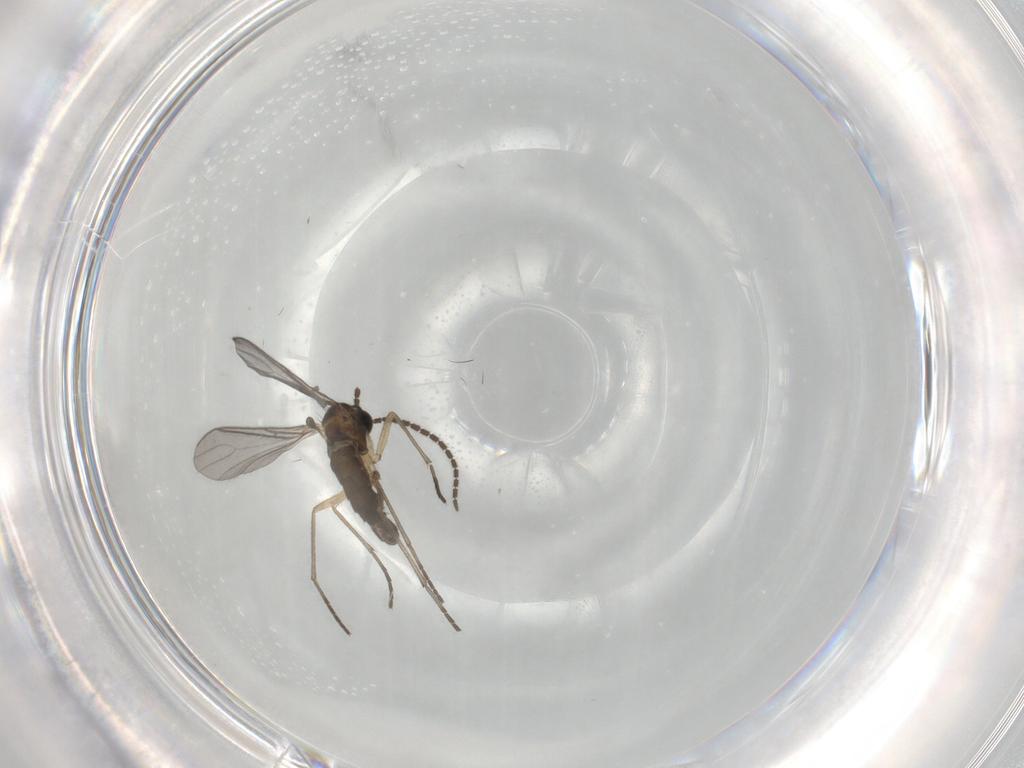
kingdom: Animalia
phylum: Arthropoda
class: Insecta
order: Diptera
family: Sciaridae
